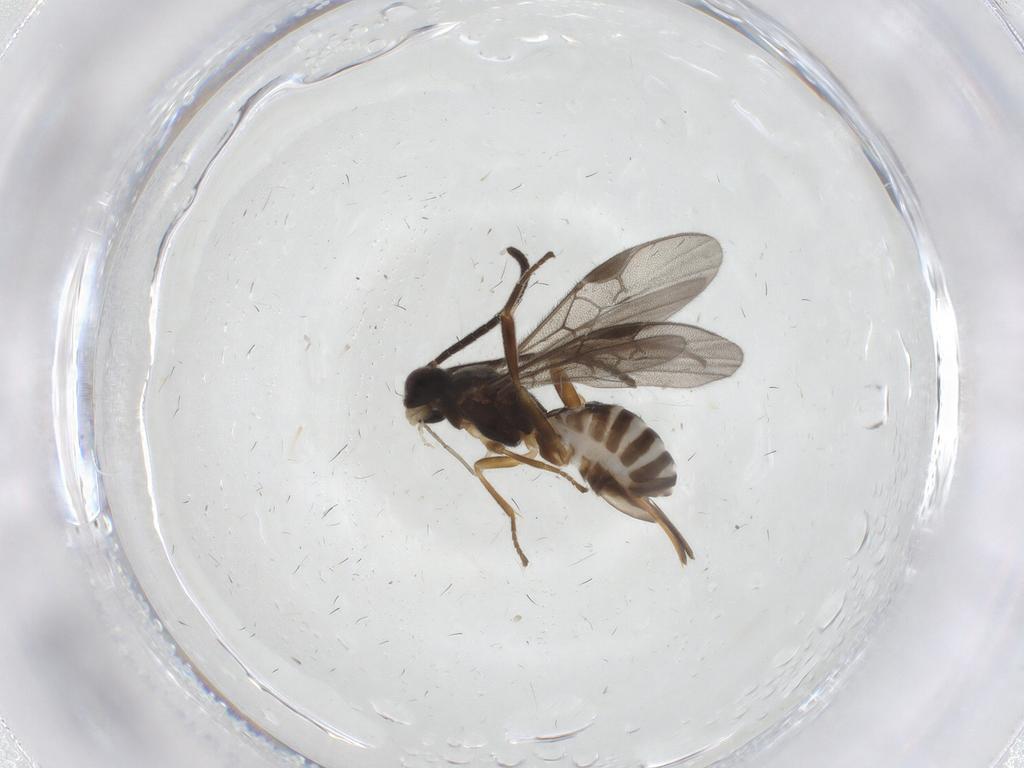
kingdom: Animalia
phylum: Arthropoda
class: Insecta
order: Hymenoptera
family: Braconidae
